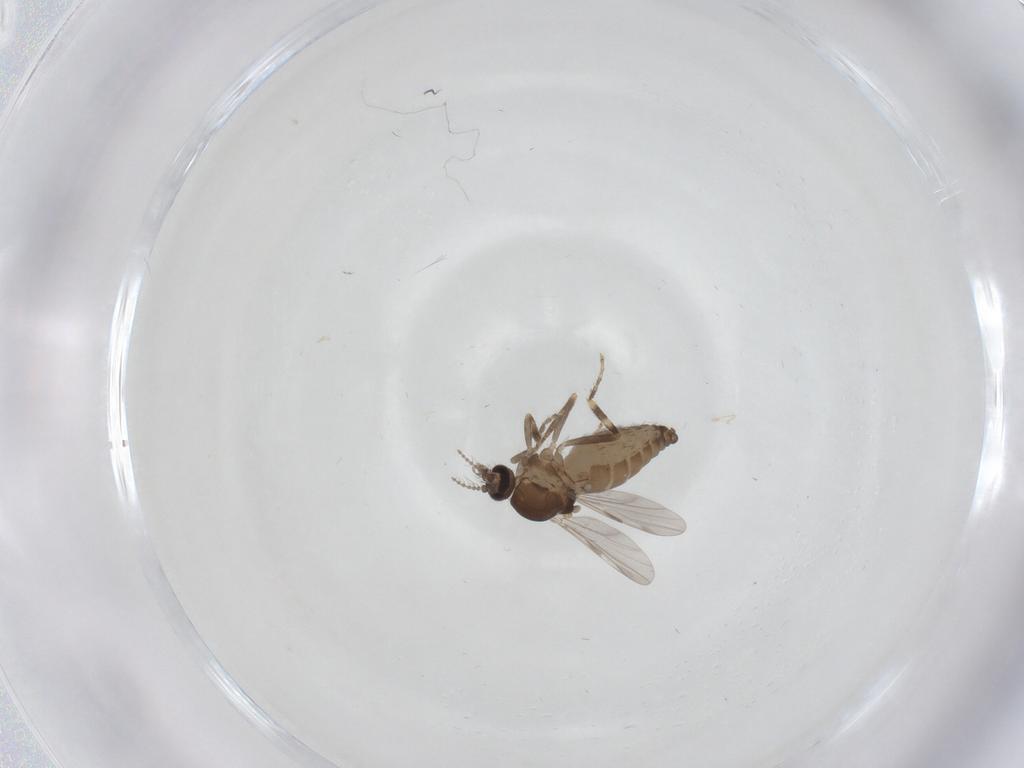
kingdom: Animalia
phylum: Arthropoda
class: Insecta
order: Diptera
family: Ceratopogonidae
